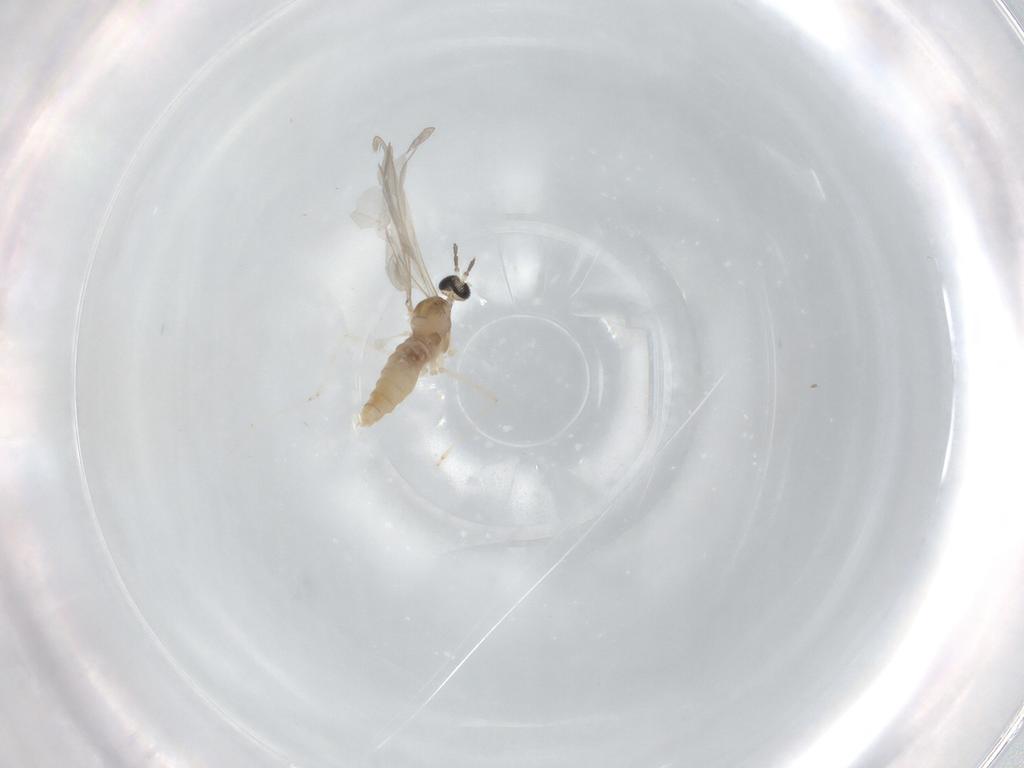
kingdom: Animalia
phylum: Arthropoda
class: Insecta
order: Diptera
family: Cecidomyiidae
